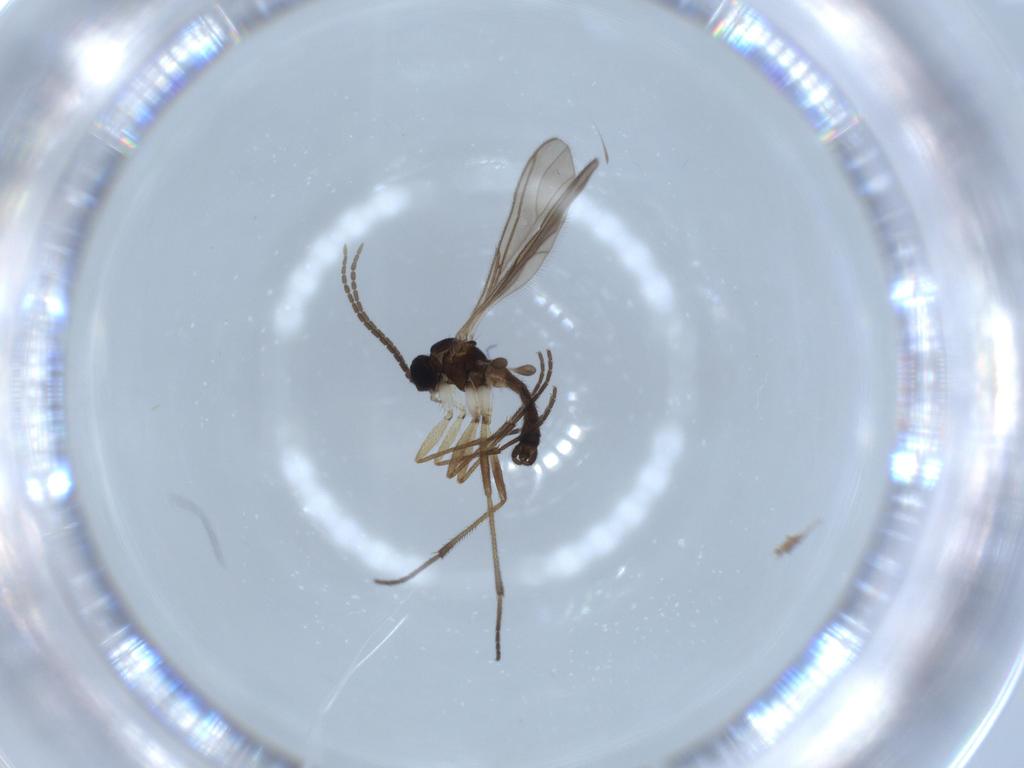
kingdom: Animalia
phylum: Arthropoda
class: Insecta
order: Diptera
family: Sciaridae
